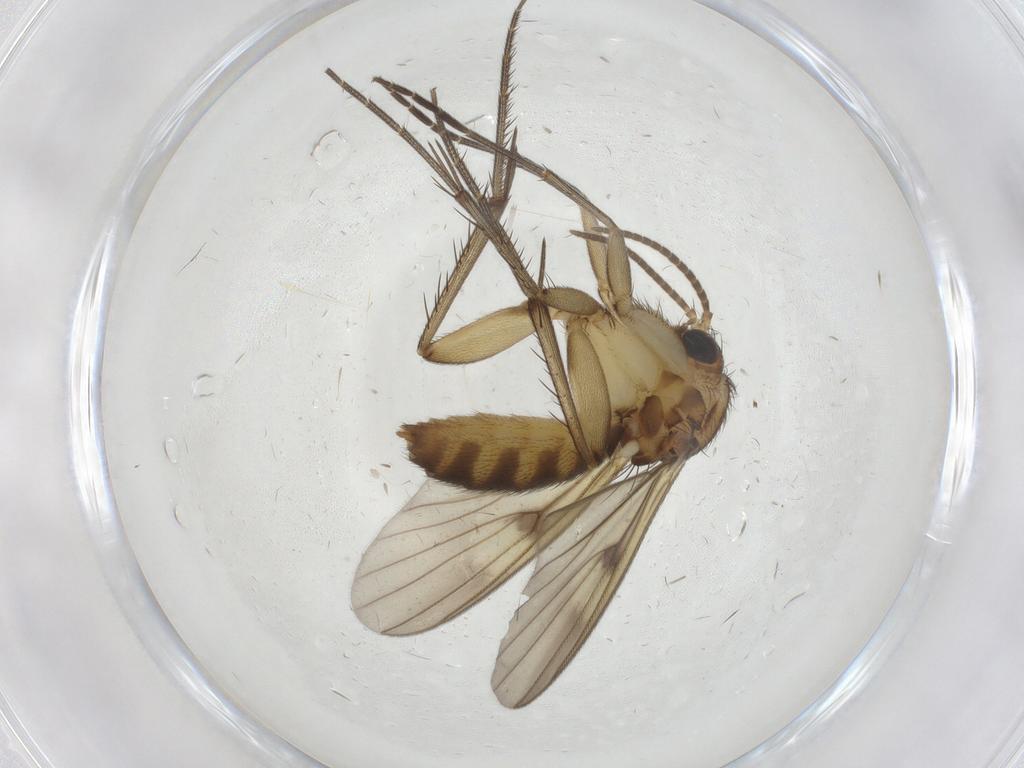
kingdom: Animalia
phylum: Arthropoda
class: Insecta
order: Diptera
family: Mycetophilidae
